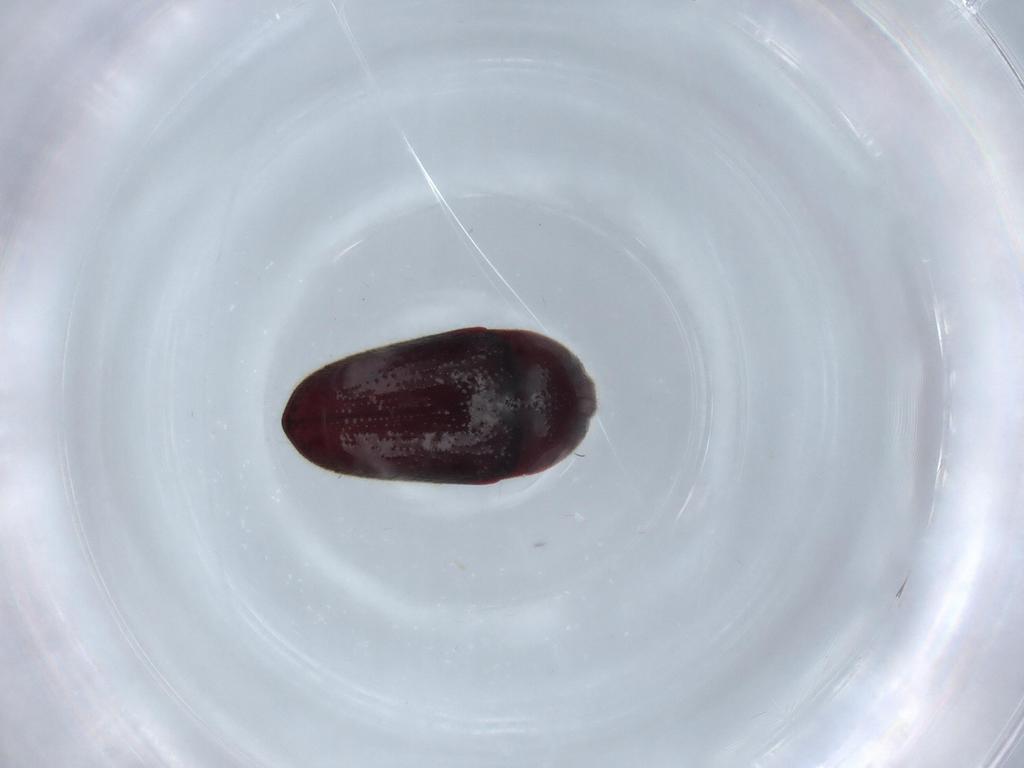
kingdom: Animalia
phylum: Arthropoda
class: Insecta
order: Coleoptera
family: Throscidae
